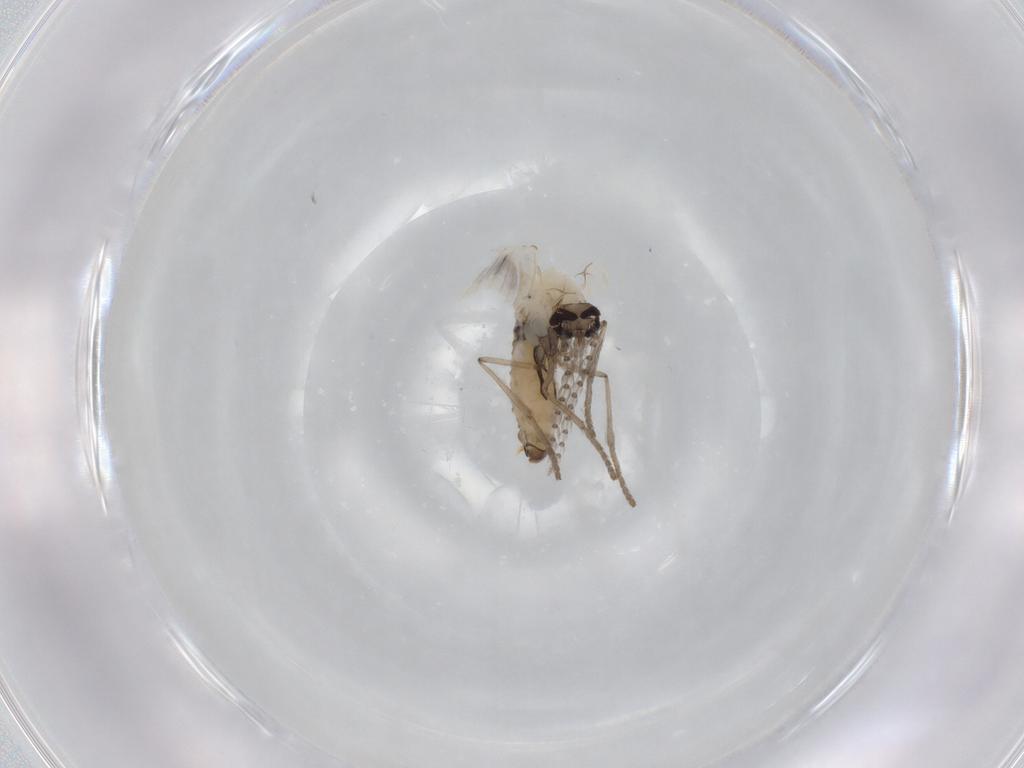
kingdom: Animalia
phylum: Arthropoda
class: Insecta
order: Diptera
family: Psychodidae
